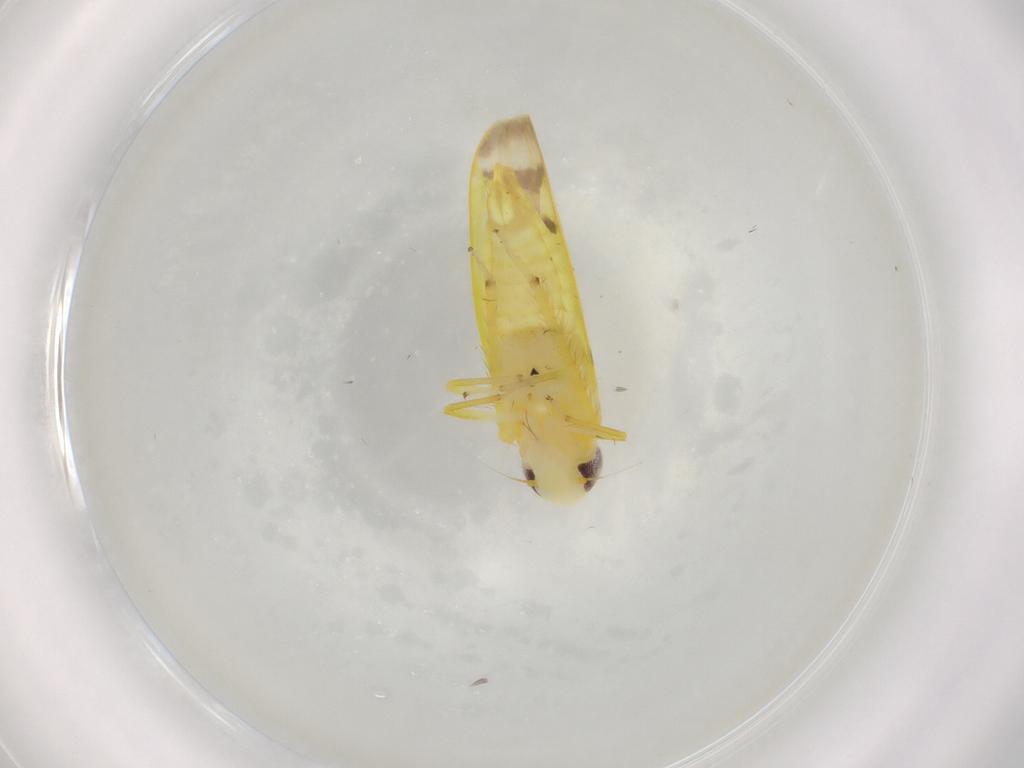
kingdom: Animalia
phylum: Arthropoda
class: Insecta
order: Hemiptera
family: Cicadellidae
